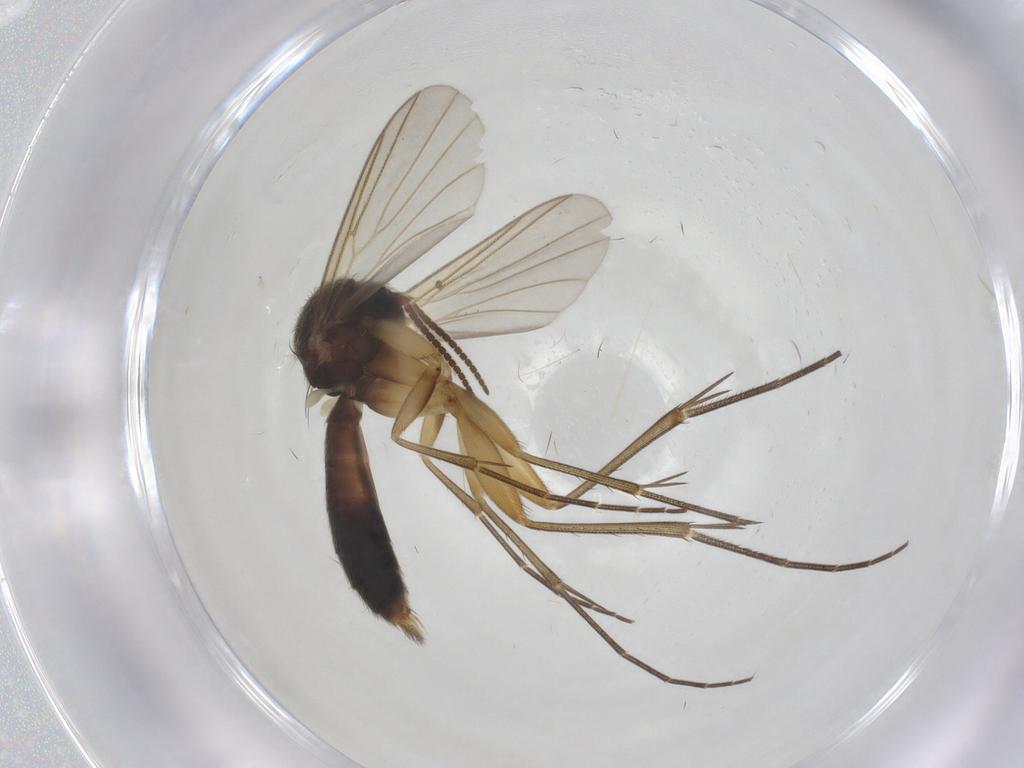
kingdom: Animalia
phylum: Arthropoda
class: Insecta
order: Diptera
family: Mycetophilidae
